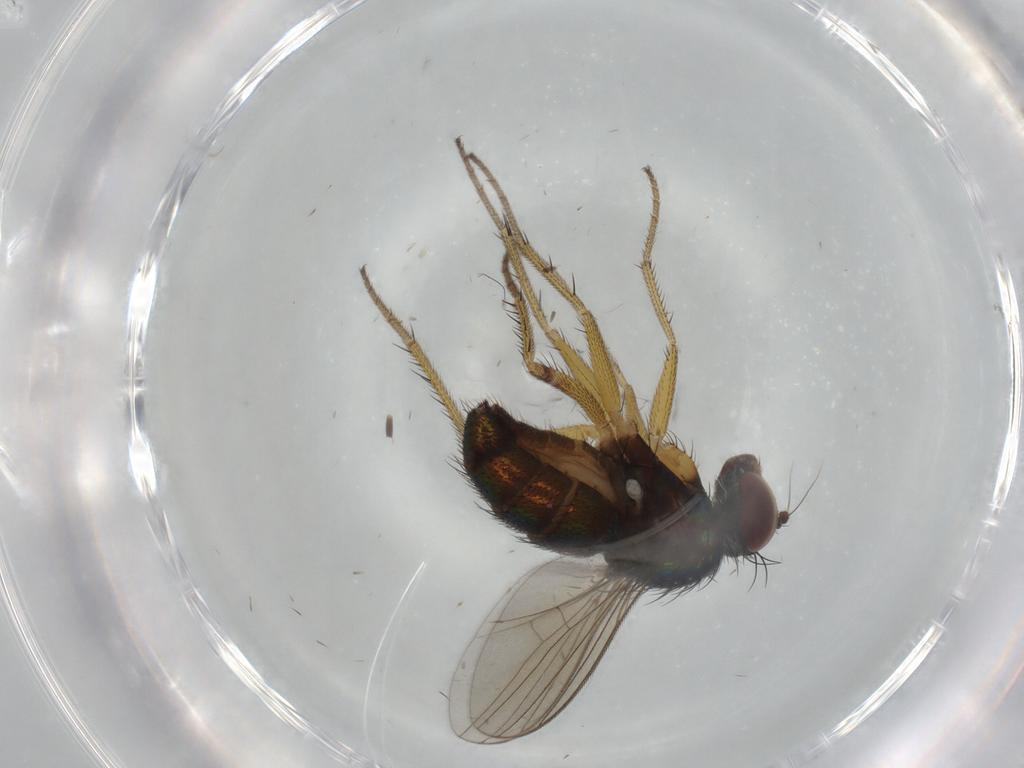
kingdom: Animalia
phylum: Arthropoda
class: Insecta
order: Diptera
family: Dolichopodidae
